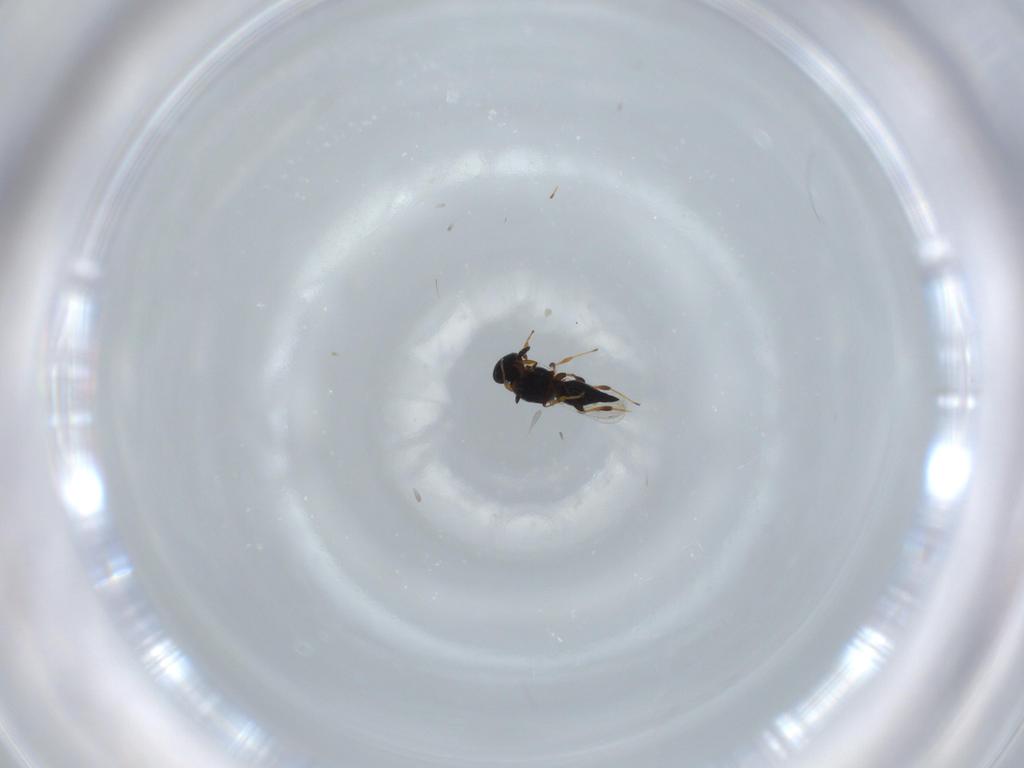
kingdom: Animalia
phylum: Arthropoda
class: Insecta
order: Hymenoptera
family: Platygastridae
